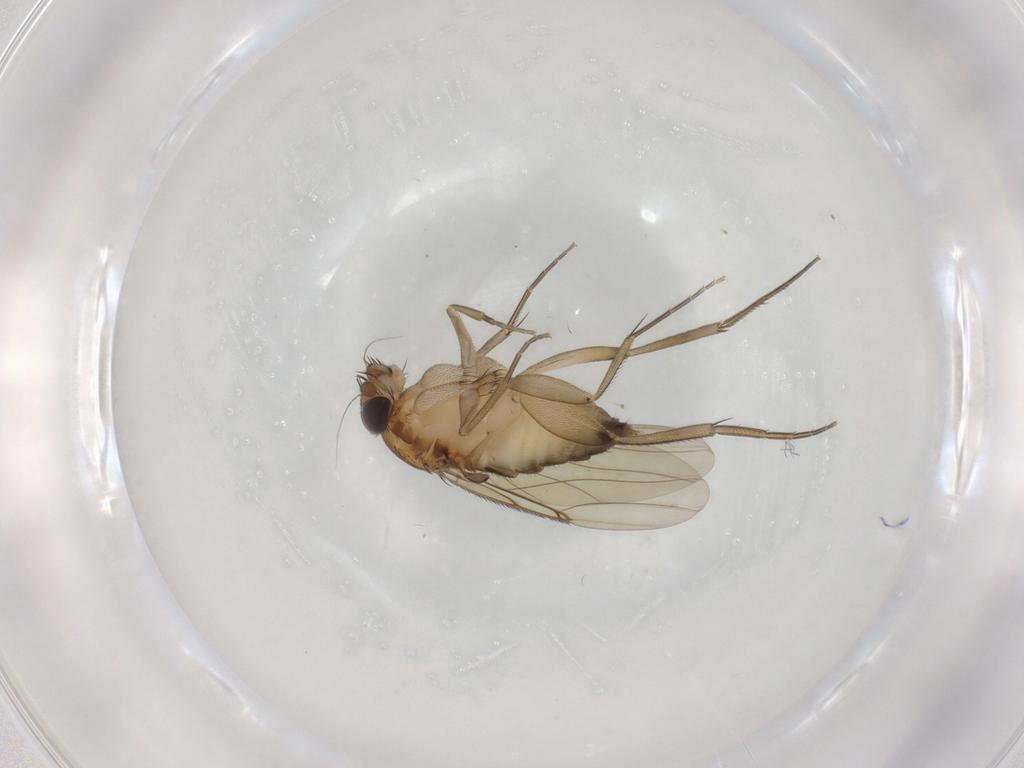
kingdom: Animalia
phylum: Arthropoda
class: Insecta
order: Diptera
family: Phoridae
